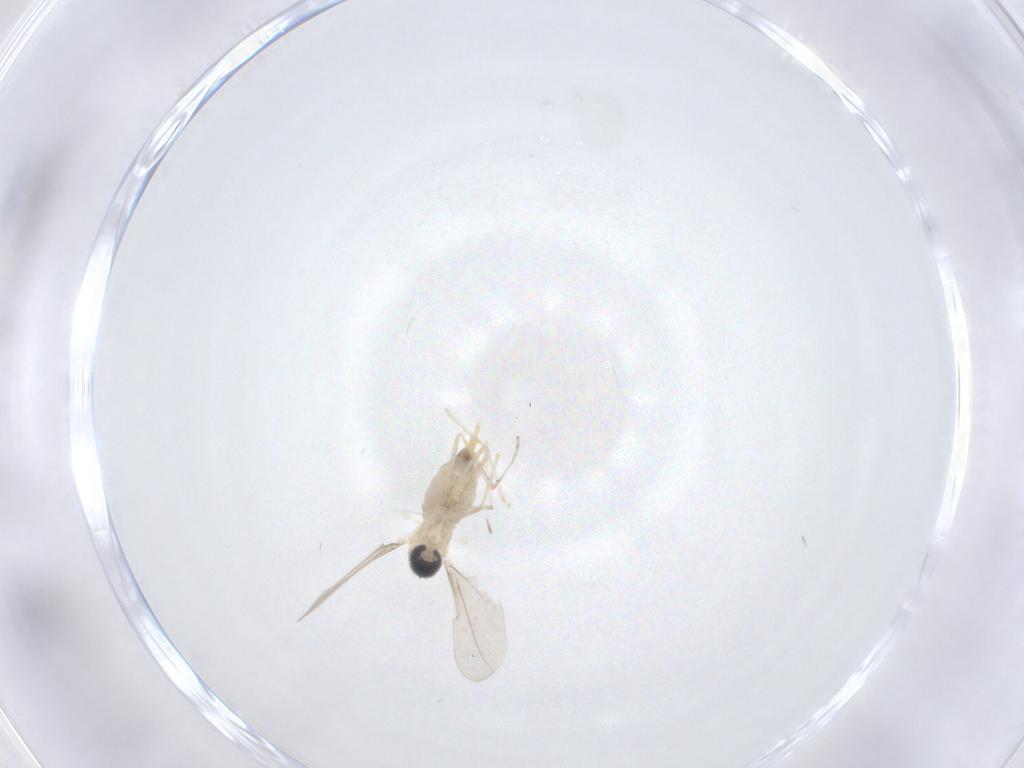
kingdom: Animalia
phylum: Arthropoda
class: Insecta
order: Diptera
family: Cecidomyiidae
